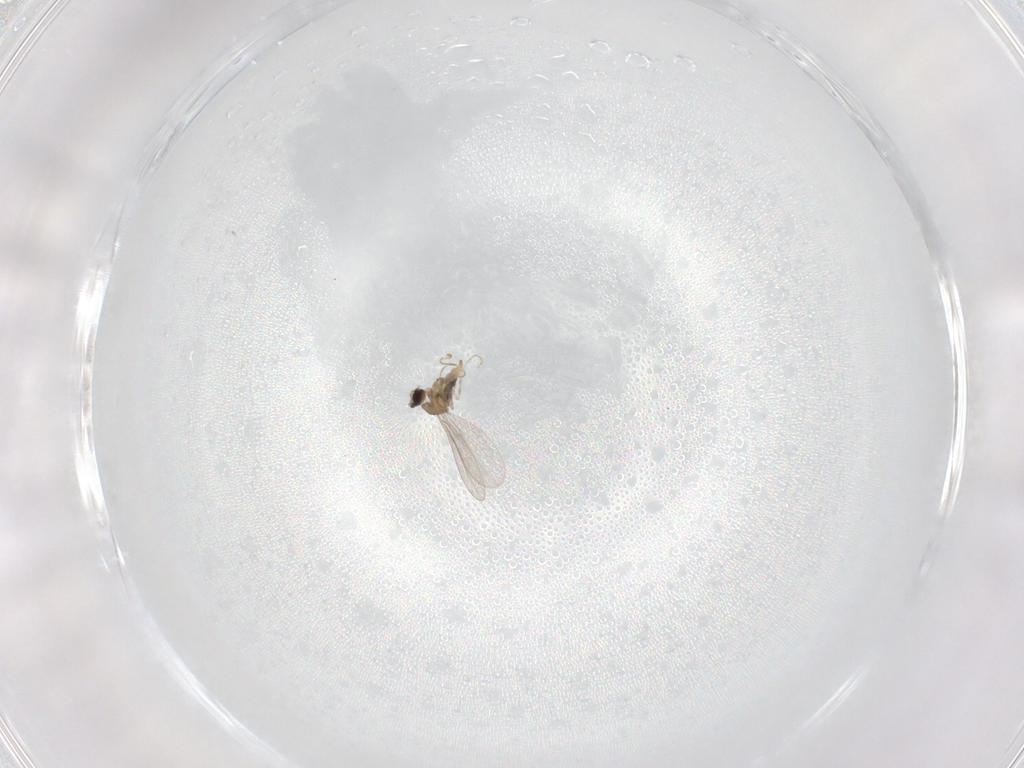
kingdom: Animalia
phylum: Arthropoda
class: Insecta
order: Diptera
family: Cecidomyiidae
